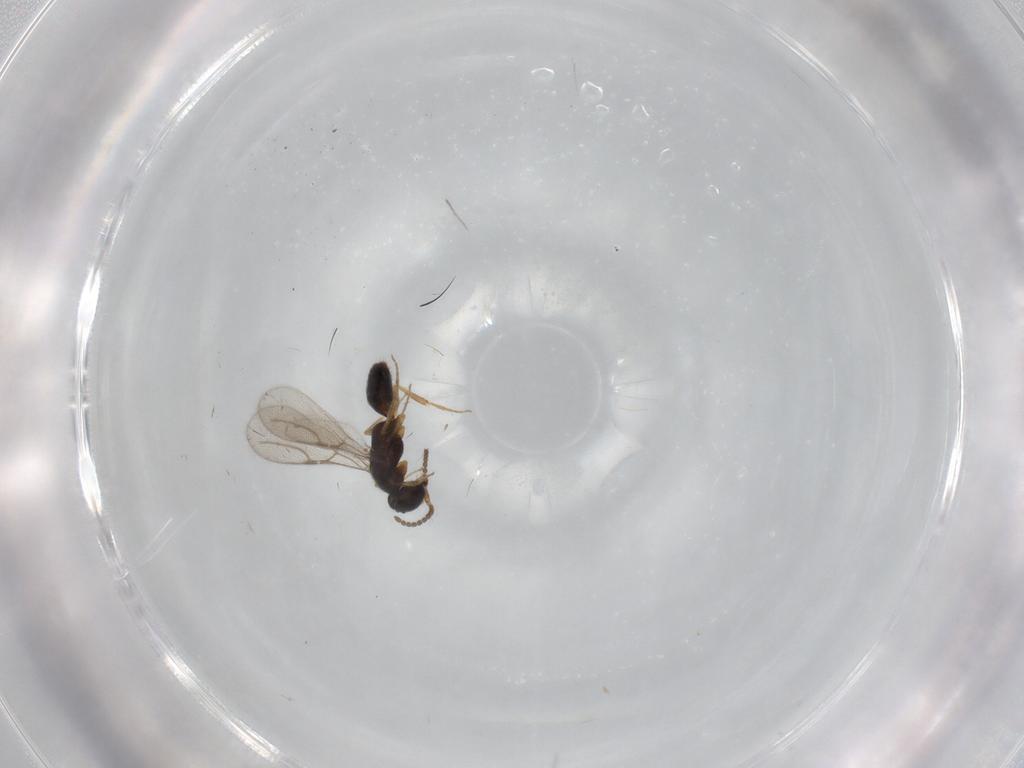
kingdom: Animalia
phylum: Arthropoda
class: Insecta
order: Hymenoptera
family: Bethylidae
